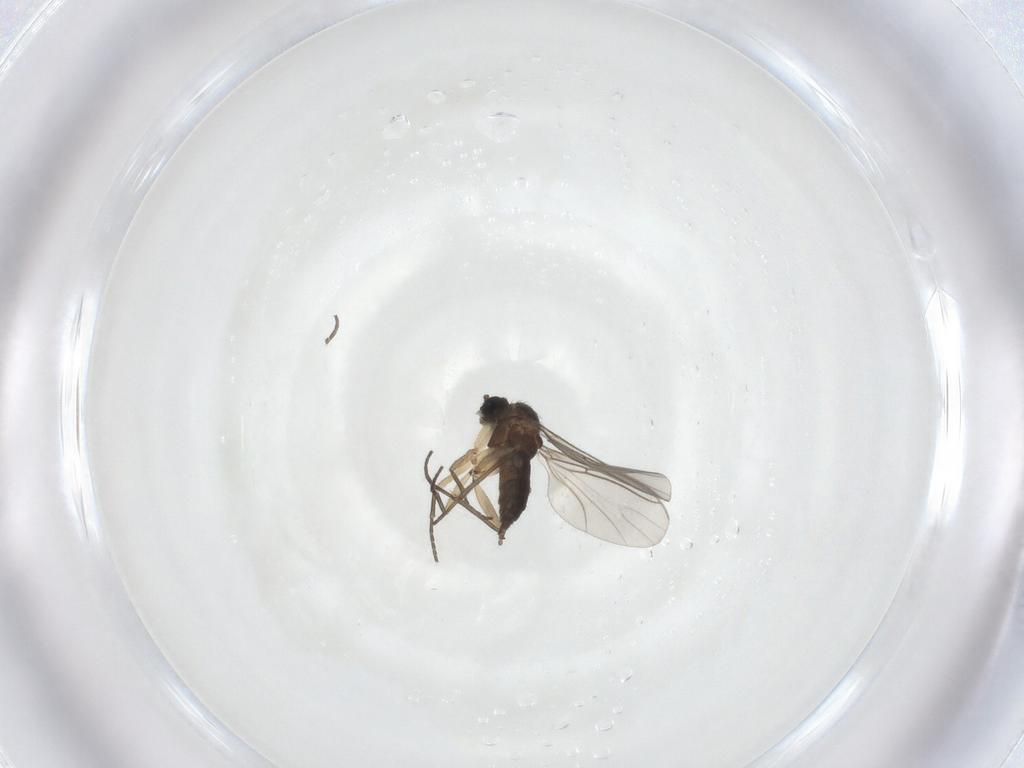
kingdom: Animalia
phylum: Arthropoda
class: Insecta
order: Diptera
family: Sciaridae
